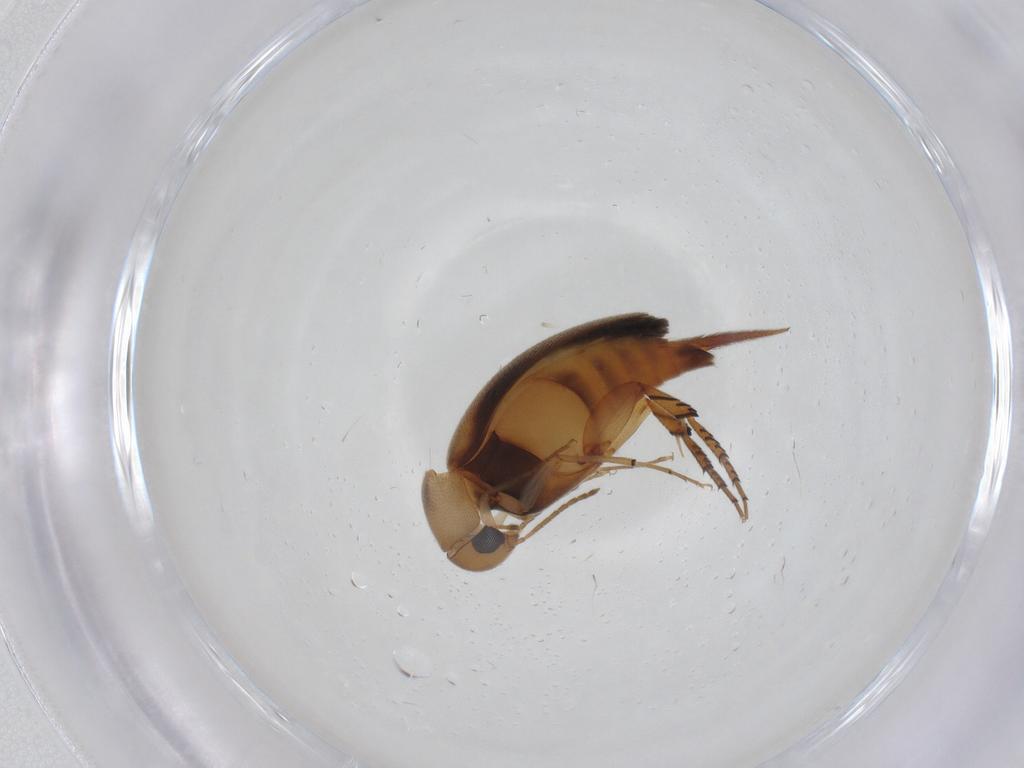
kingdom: Animalia
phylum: Arthropoda
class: Insecta
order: Coleoptera
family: Mordellidae
